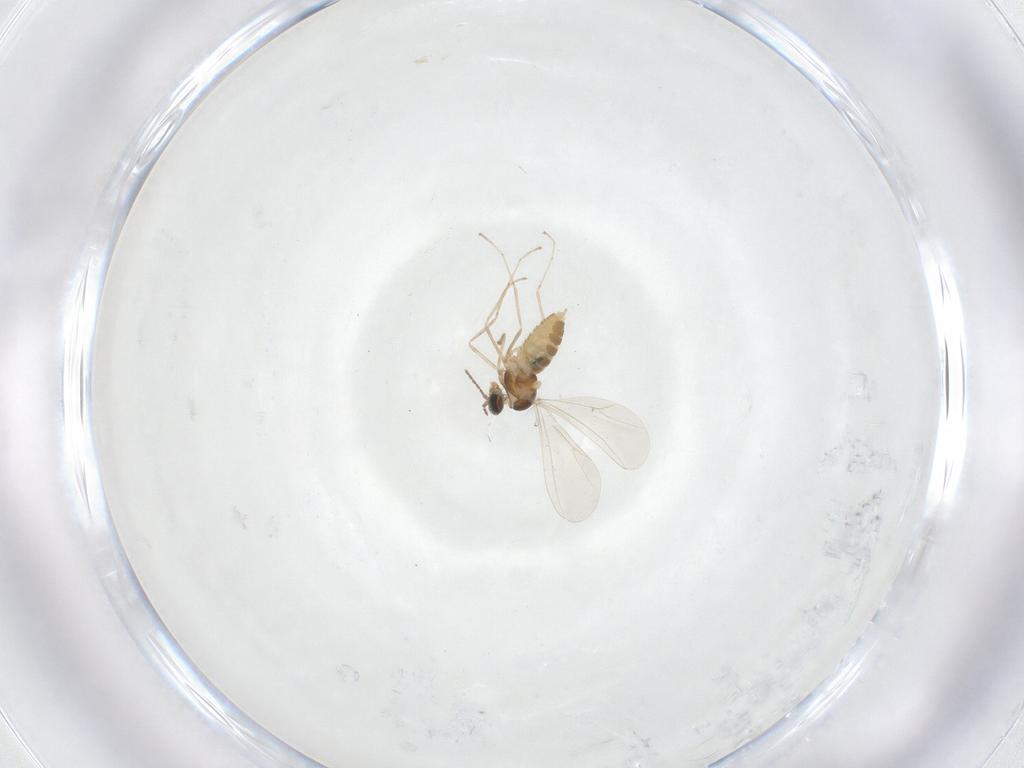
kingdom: Animalia
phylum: Arthropoda
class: Insecta
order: Diptera
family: Cecidomyiidae
